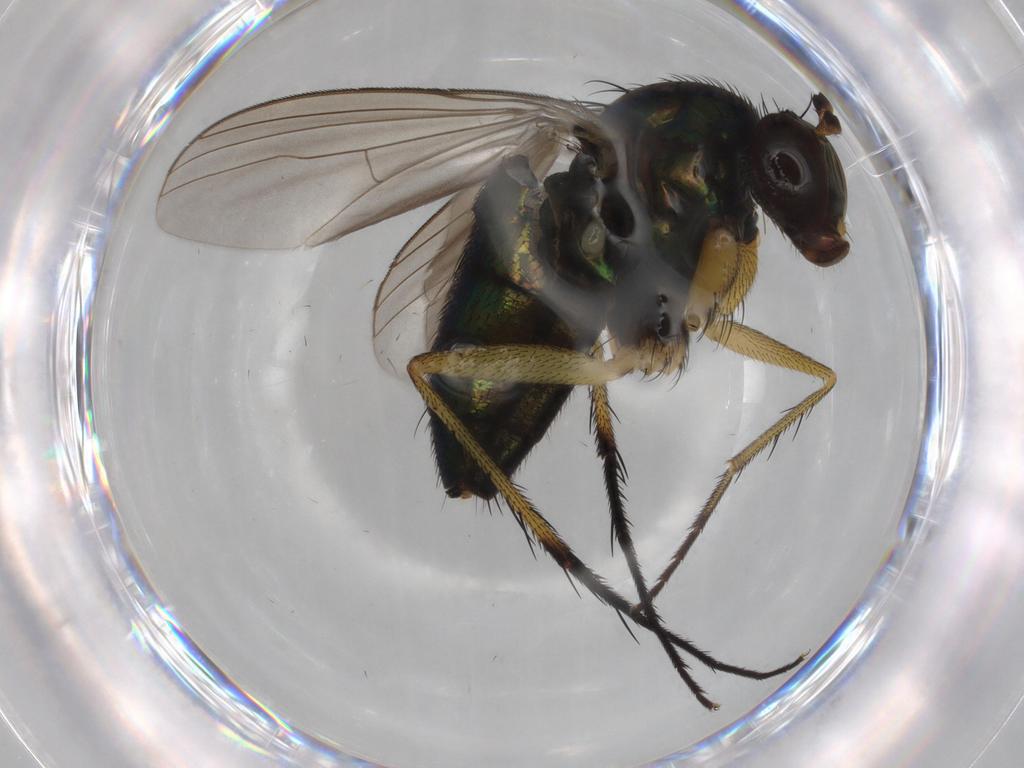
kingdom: Animalia
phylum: Arthropoda
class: Insecta
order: Diptera
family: Dolichopodidae
